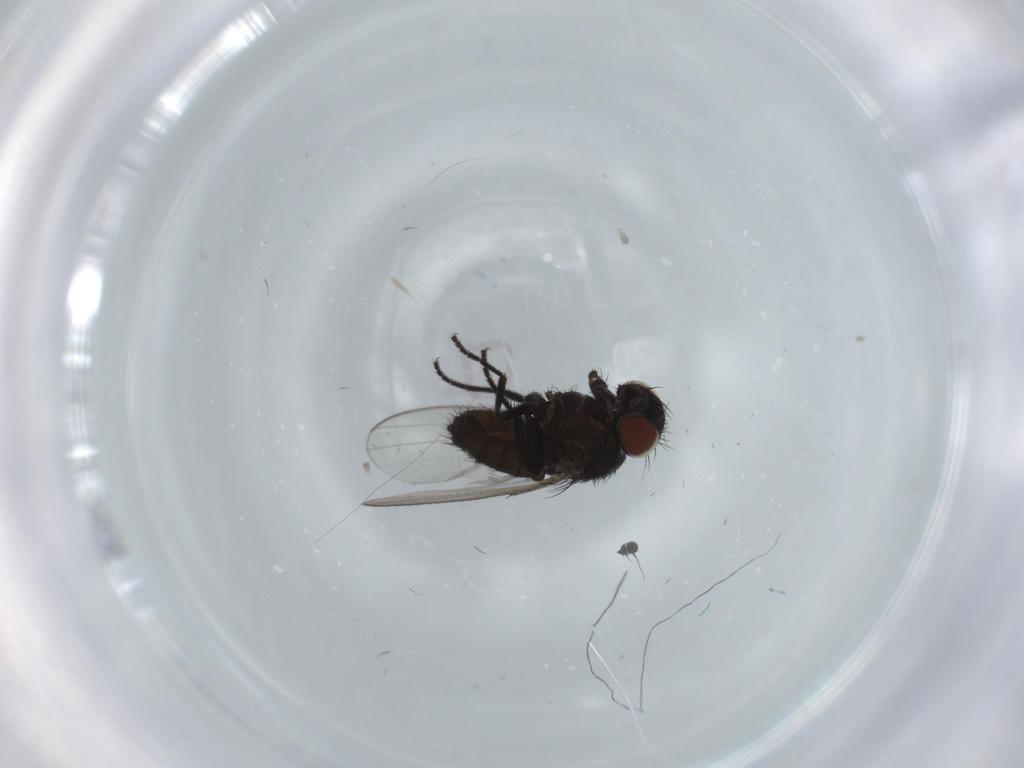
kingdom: Animalia
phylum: Arthropoda
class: Insecta
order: Diptera
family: Milichiidae
